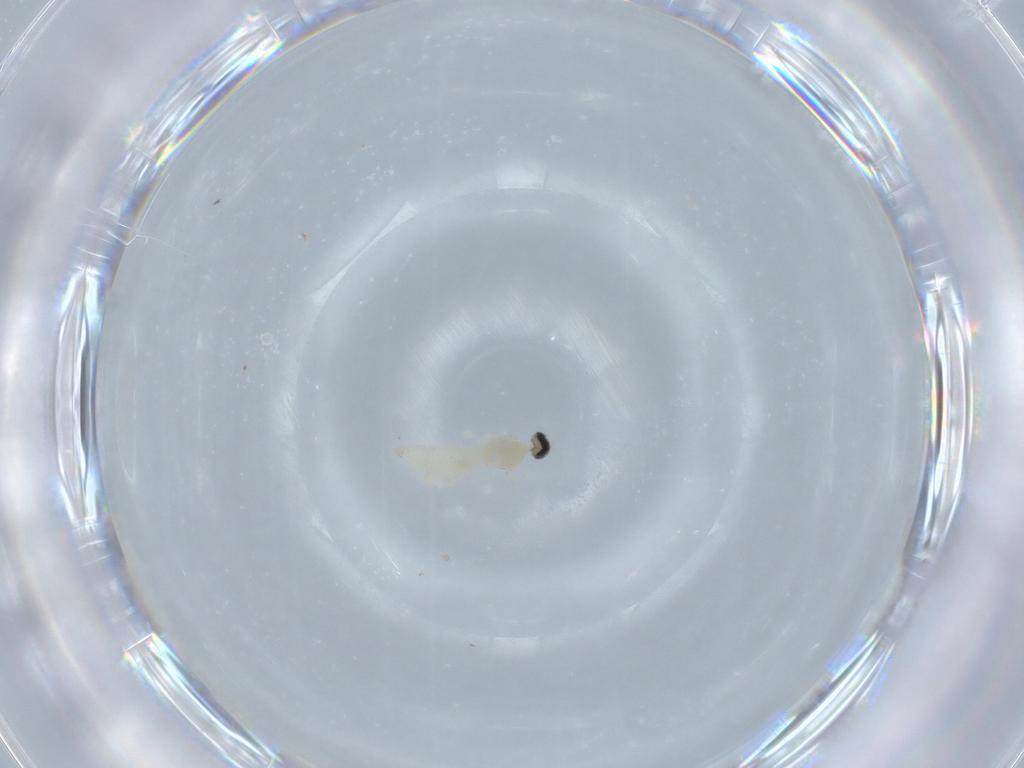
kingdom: Animalia
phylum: Arthropoda
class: Insecta
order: Diptera
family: Cecidomyiidae
